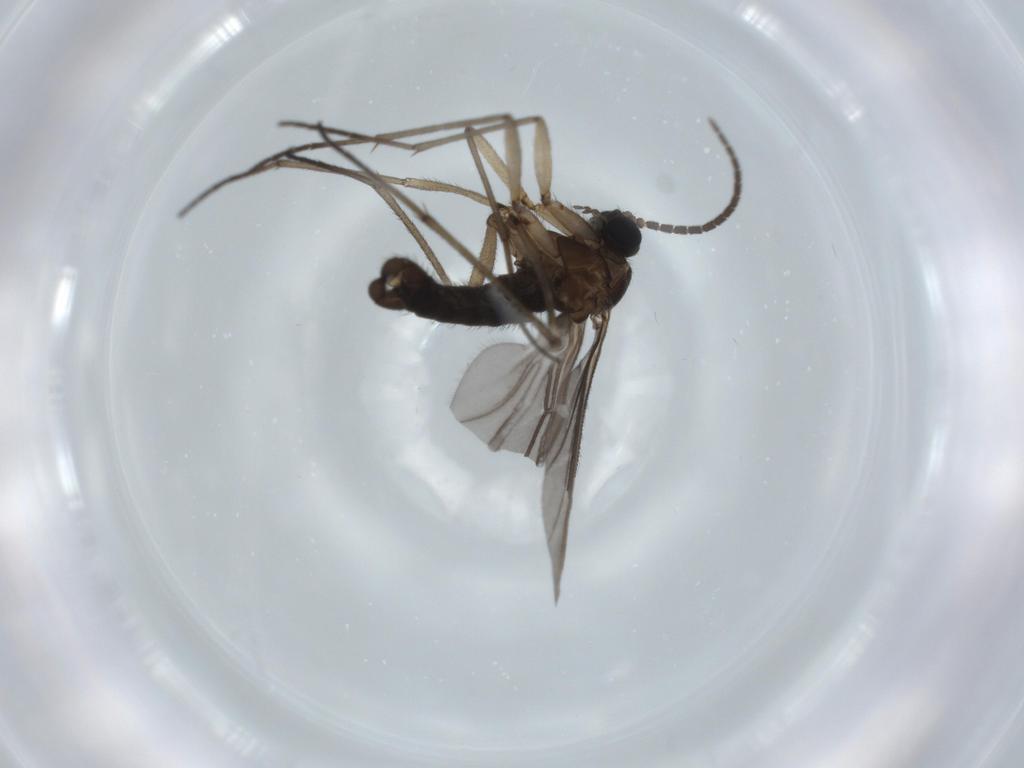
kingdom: Animalia
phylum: Arthropoda
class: Insecta
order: Diptera
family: Sciaridae
